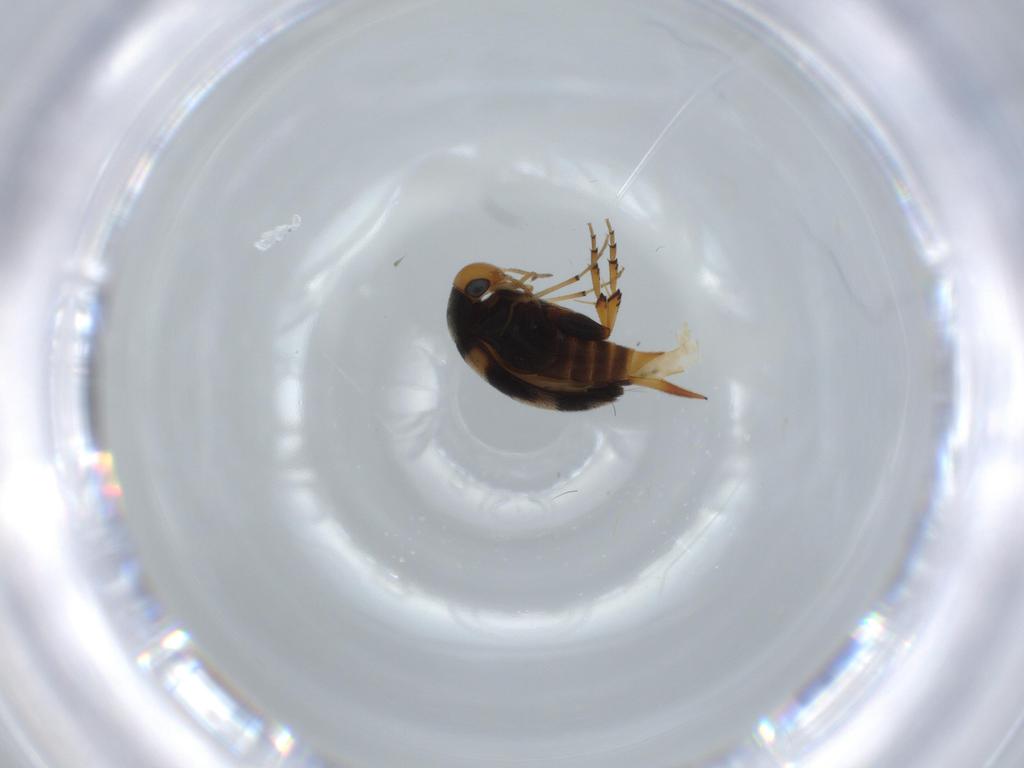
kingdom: Animalia
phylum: Arthropoda
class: Insecta
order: Coleoptera
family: Mordellidae
